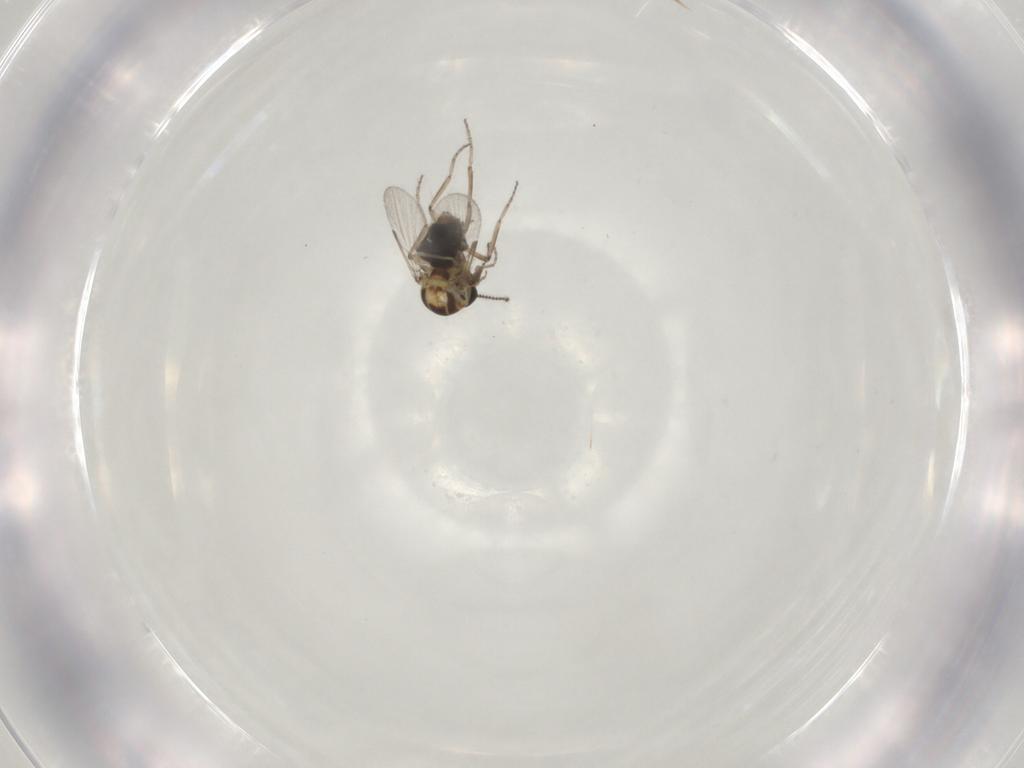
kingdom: Animalia
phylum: Arthropoda
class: Insecta
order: Diptera
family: Ceratopogonidae
